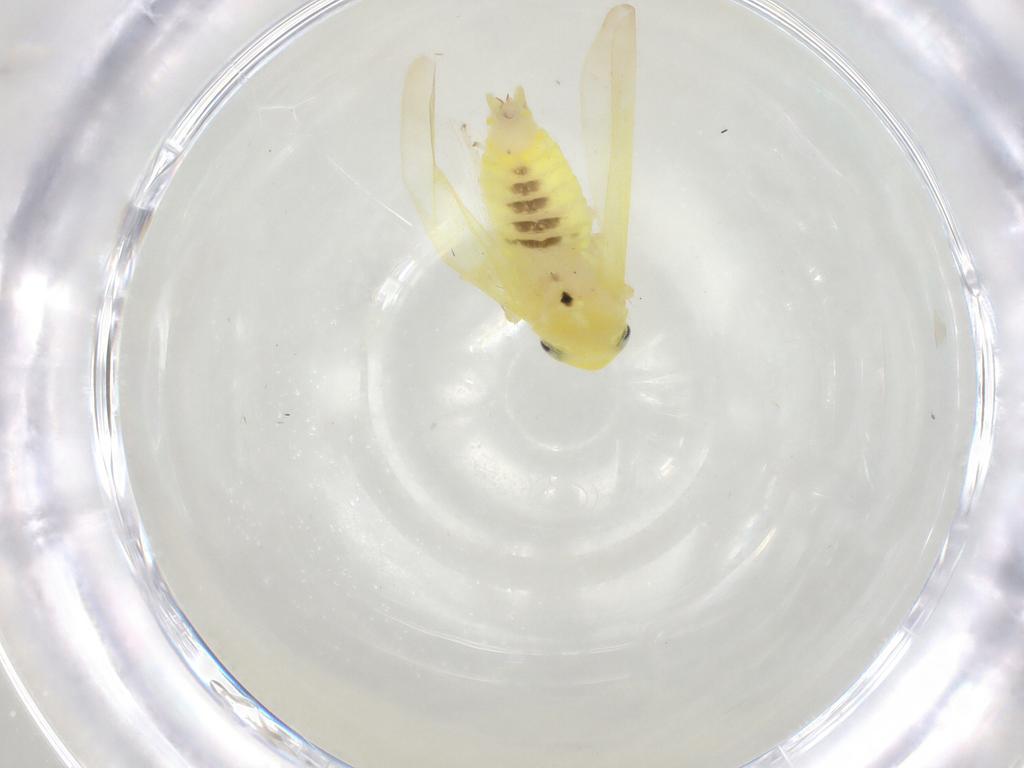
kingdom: Animalia
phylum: Arthropoda
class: Insecta
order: Hemiptera
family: Cicadellidae
